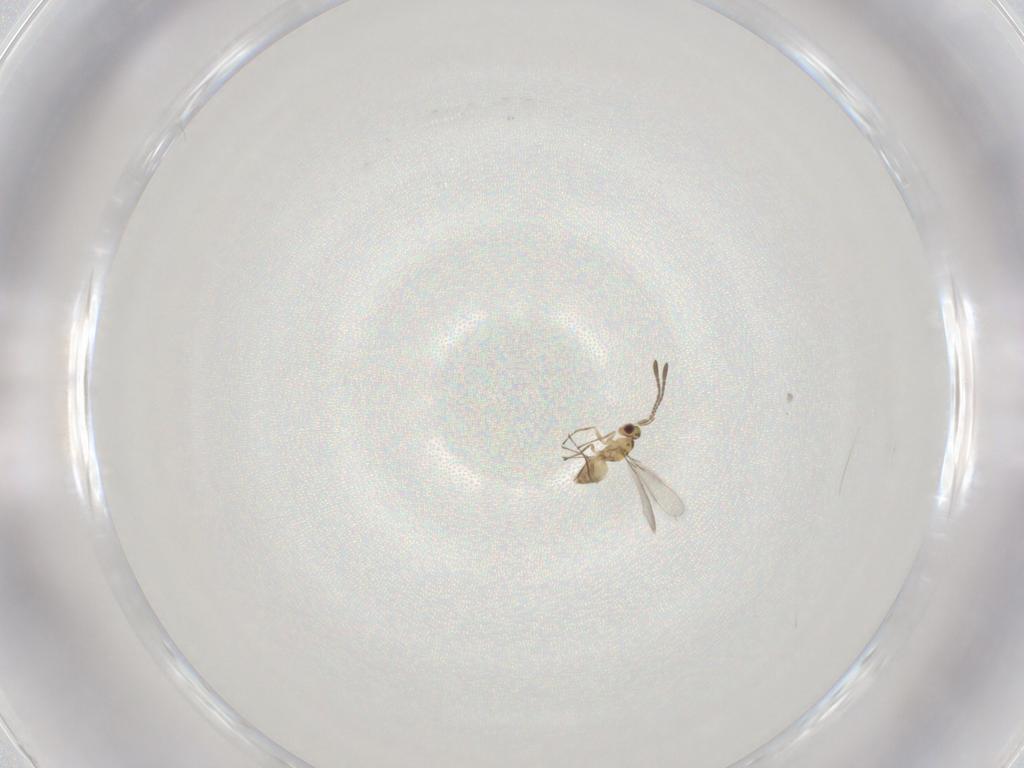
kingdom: Animalia
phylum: Arthropoda
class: Insecta
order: Hymenoptera
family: Mymaridae
